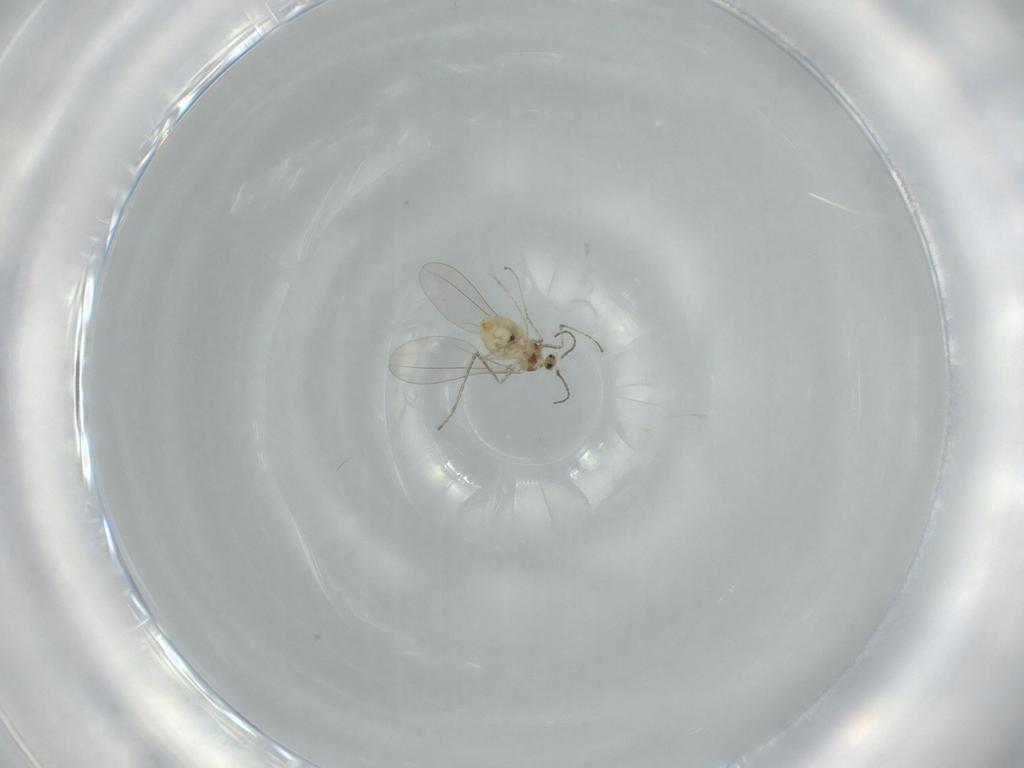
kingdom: Animalia
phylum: Arthropoda
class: Insecta
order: Diptera
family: Cecidomyiidae
